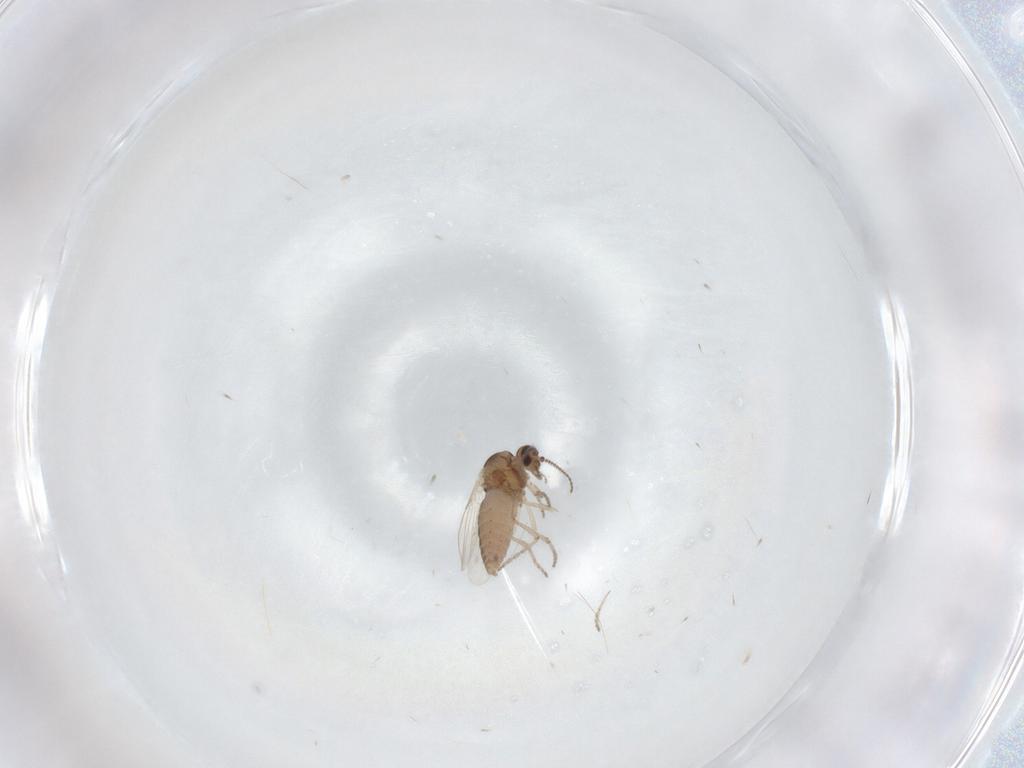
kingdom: Animalia
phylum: Arthropoda
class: Insecta
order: Diptera
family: Ceratopogonidae
